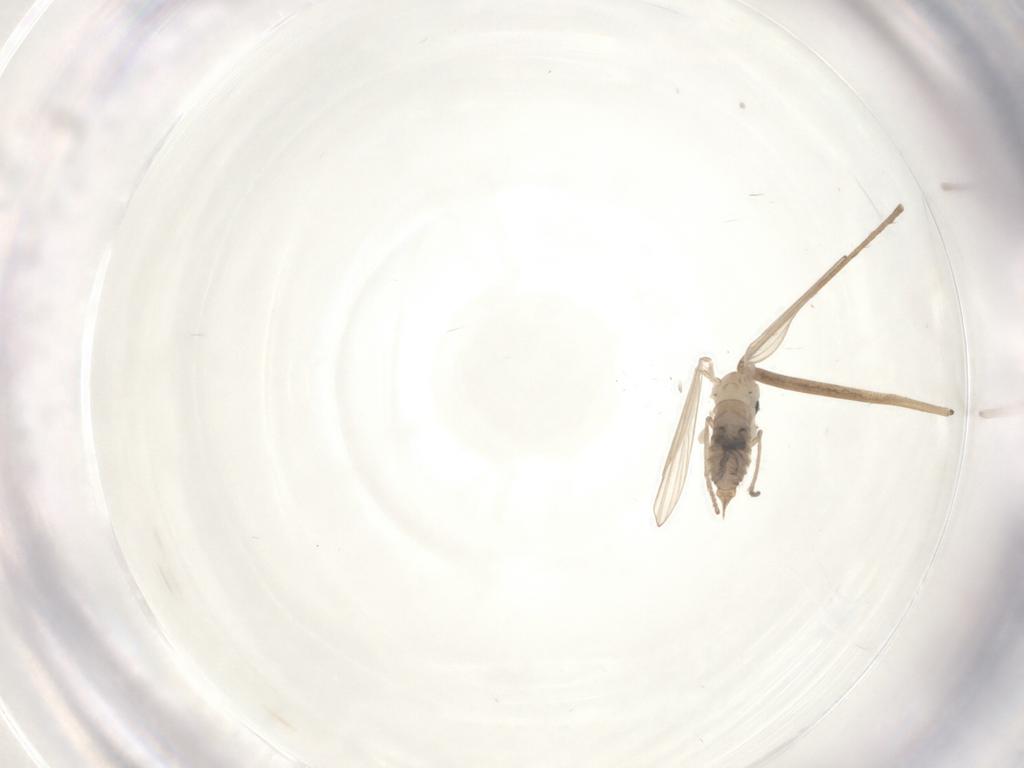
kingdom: Animalia
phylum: Arthropoda
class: Insecta
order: Diptera
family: Limoniidae
